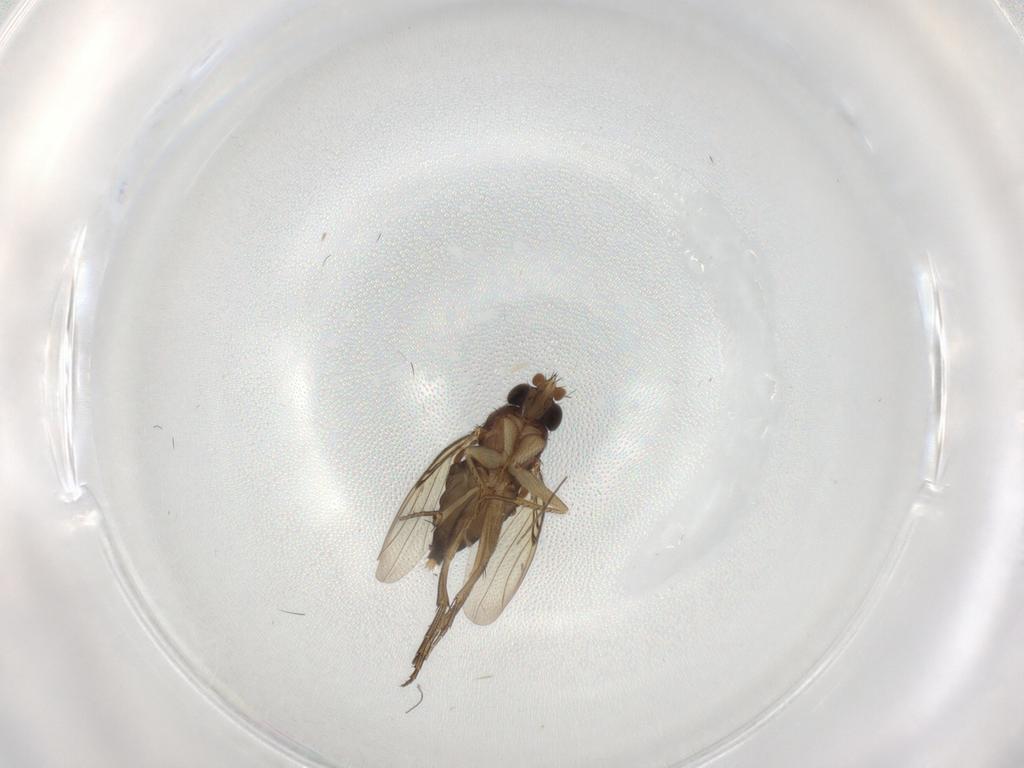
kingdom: Animalia
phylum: Arthropoda
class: Insecta
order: Diptera
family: Phoridae
